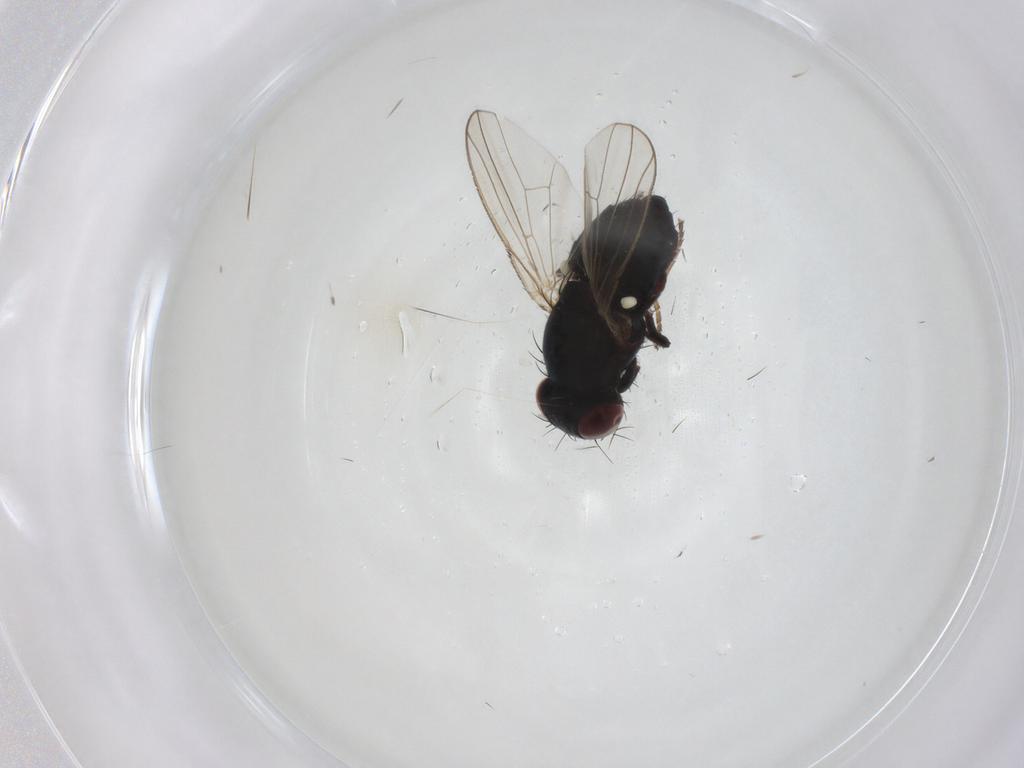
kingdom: Animalia
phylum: Arthropoda
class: Insecta
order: Diptera
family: Carnidae
